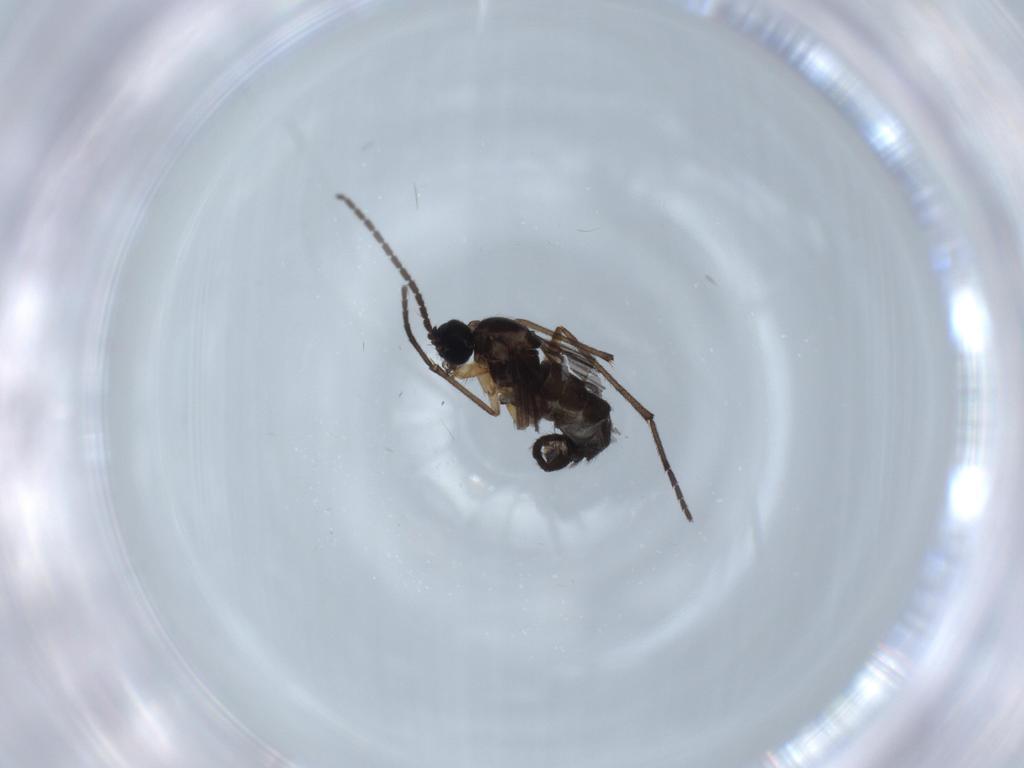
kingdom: Animalia
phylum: Arthropoda
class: Insecta
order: Diptera
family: Sciaridae
